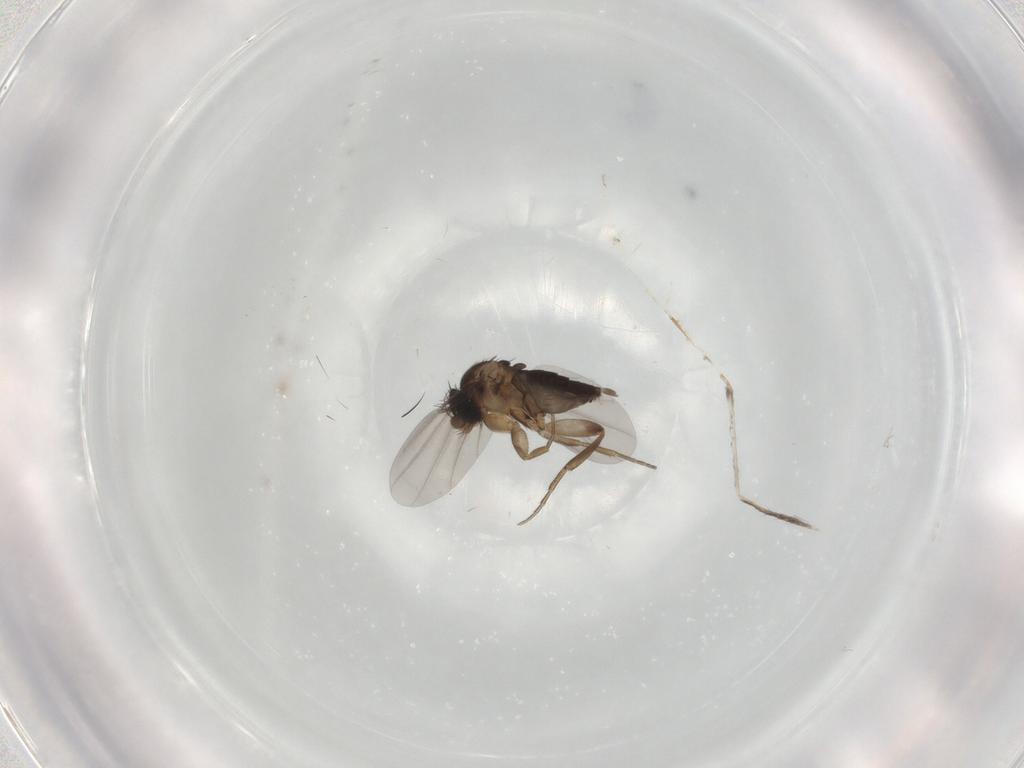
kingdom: Animalia
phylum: Arthropoda
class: Insecta
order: Diptera
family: Phoridae
